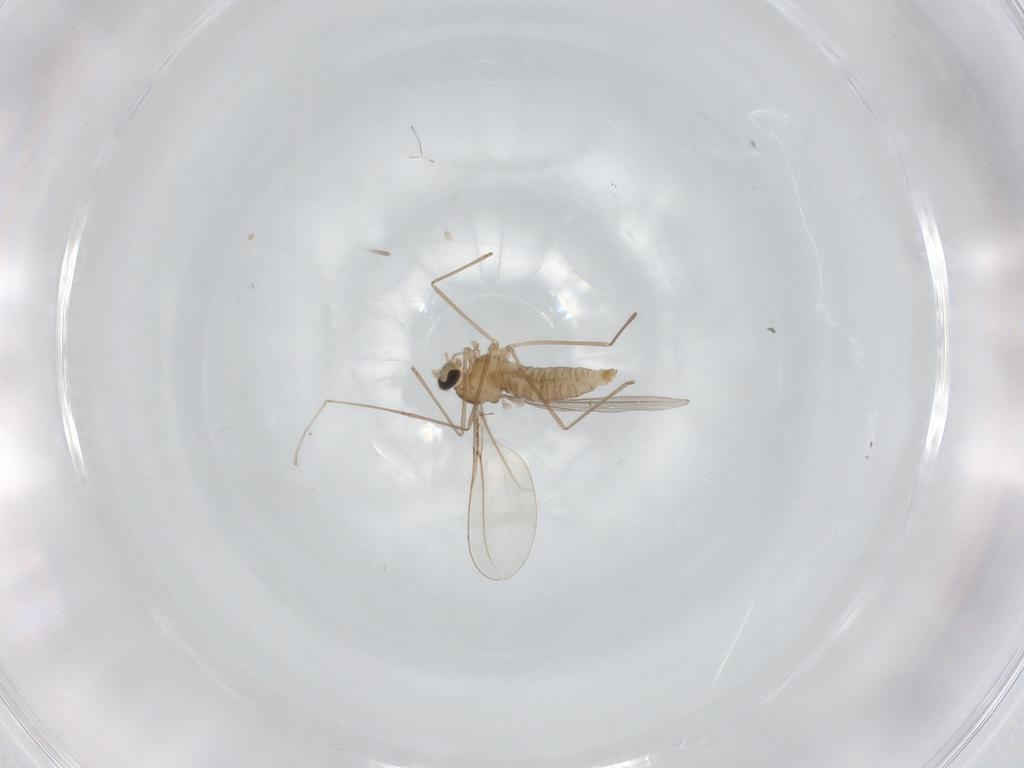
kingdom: Animalia
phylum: Arthropoda
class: Insecta
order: Diptera
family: Cecidomyiidae
